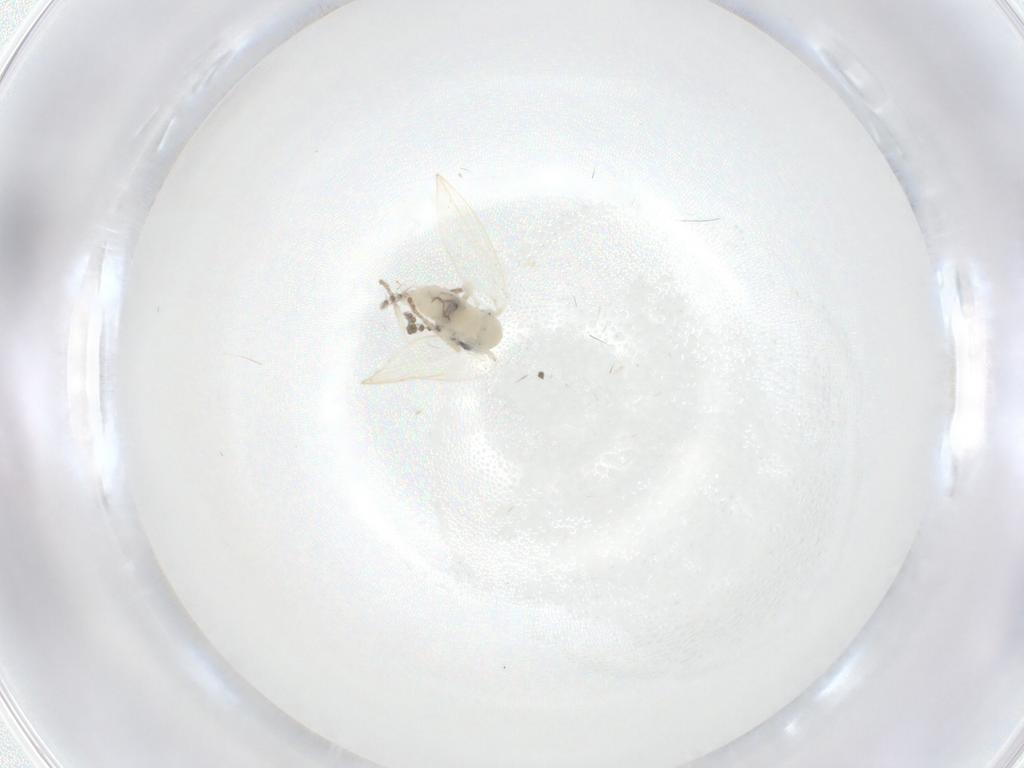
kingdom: Animalia
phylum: Arthropoda
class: Insecta
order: Diptera
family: Psychodidae
